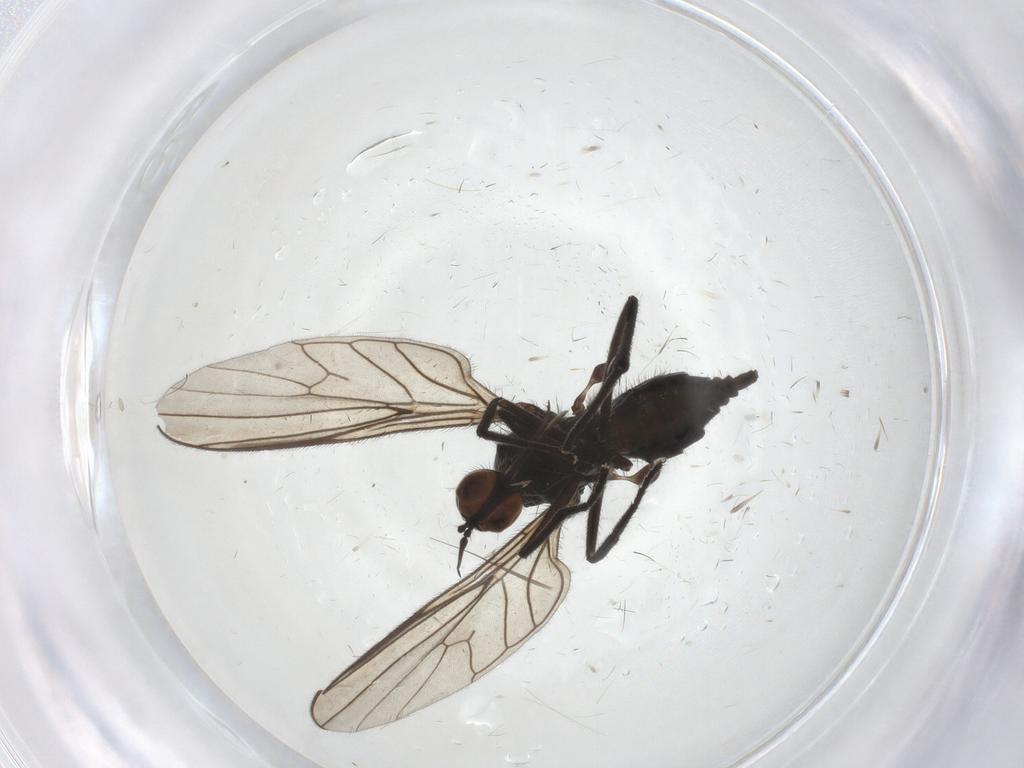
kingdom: Animalia
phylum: Arthropoda
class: Insecta
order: Diptera
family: Empididae
